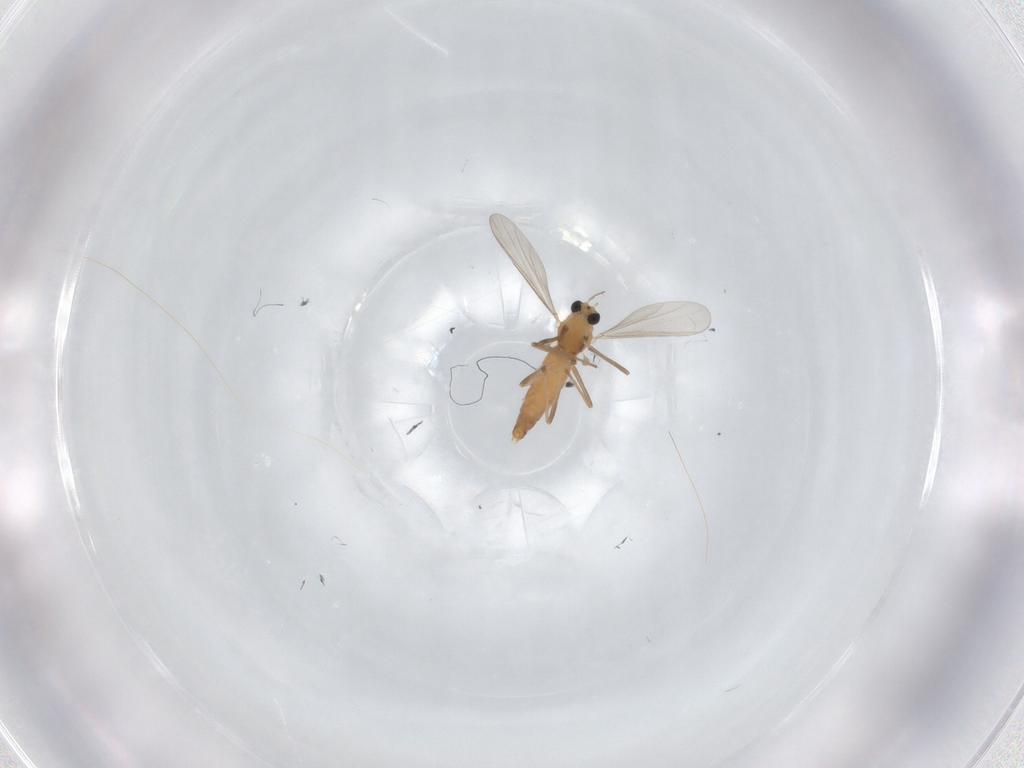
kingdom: Animalia
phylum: Arthropoda
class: Insecta
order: Diptera
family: Chironomidae
